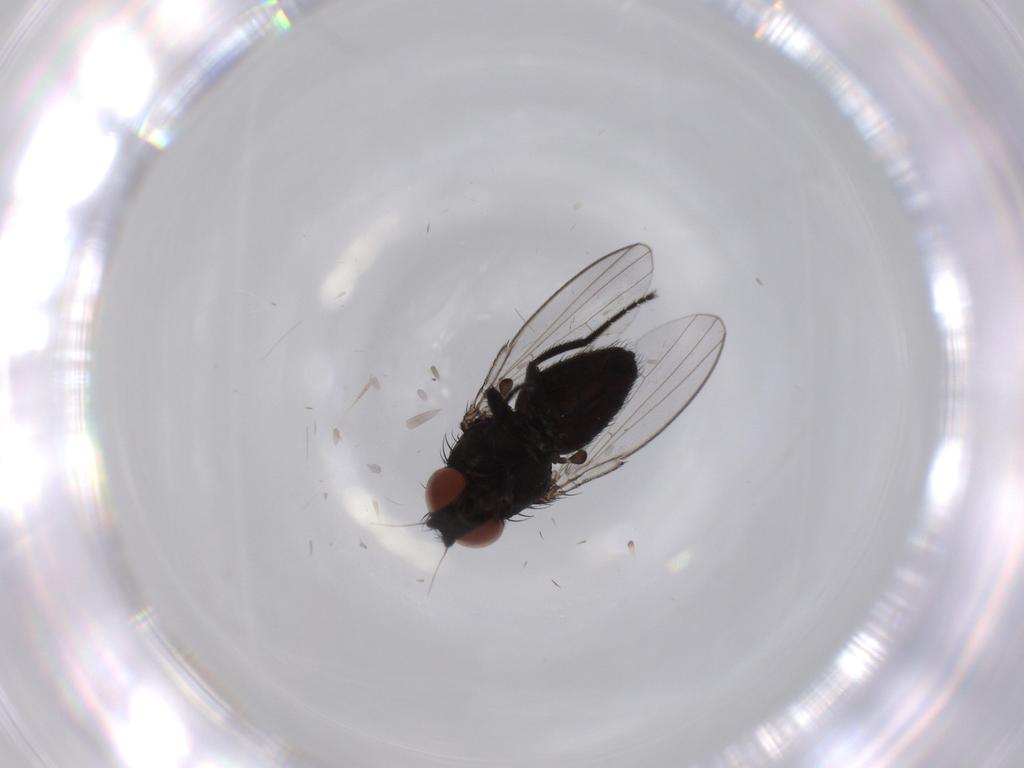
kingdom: Animalia
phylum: Arthropoda
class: Insecta
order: Diptera
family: Milichiidae
